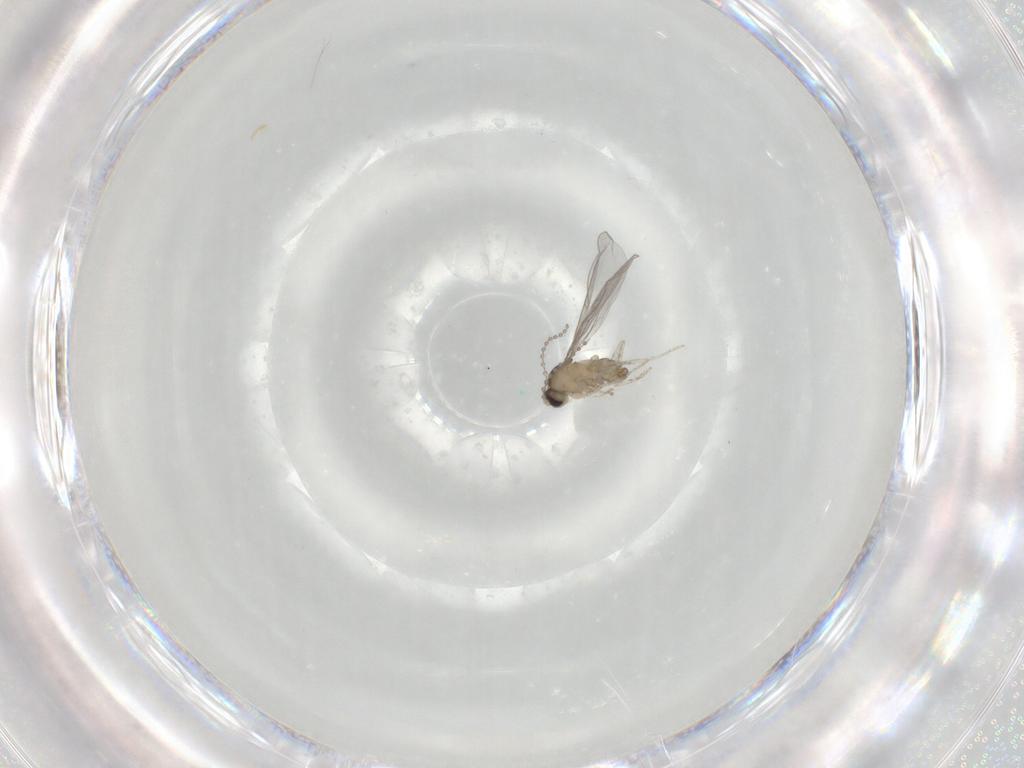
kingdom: Animalia
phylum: Arthropoda
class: Insecta
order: Diptera
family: Cecidomyiidae
